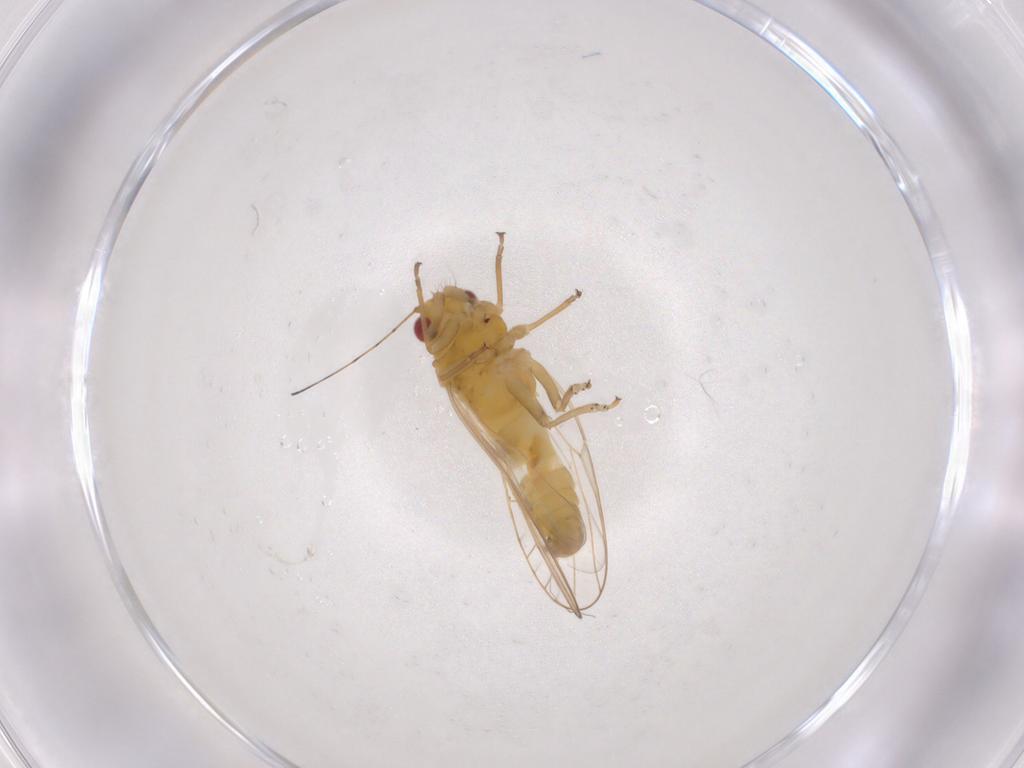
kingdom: Animalia
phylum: Arthropoda
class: Insecta
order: Hemiptera
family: Psyllidae
